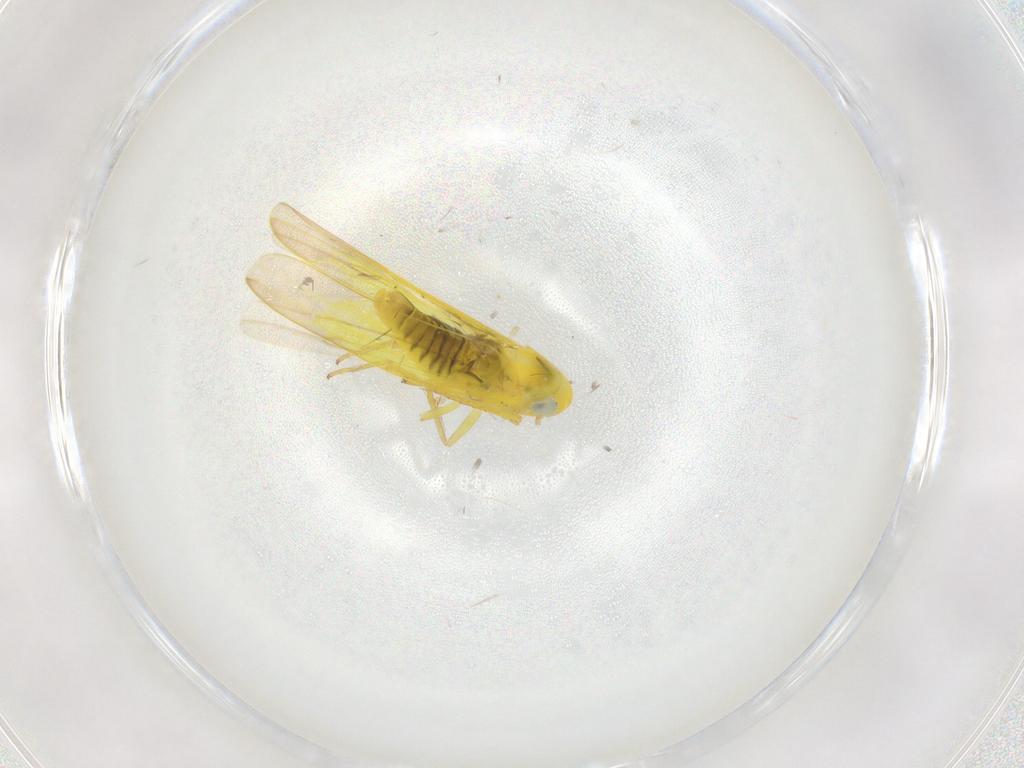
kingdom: Animalia
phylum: Arthropoda
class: Insecta
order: Hemiptera
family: Cicadellidae
